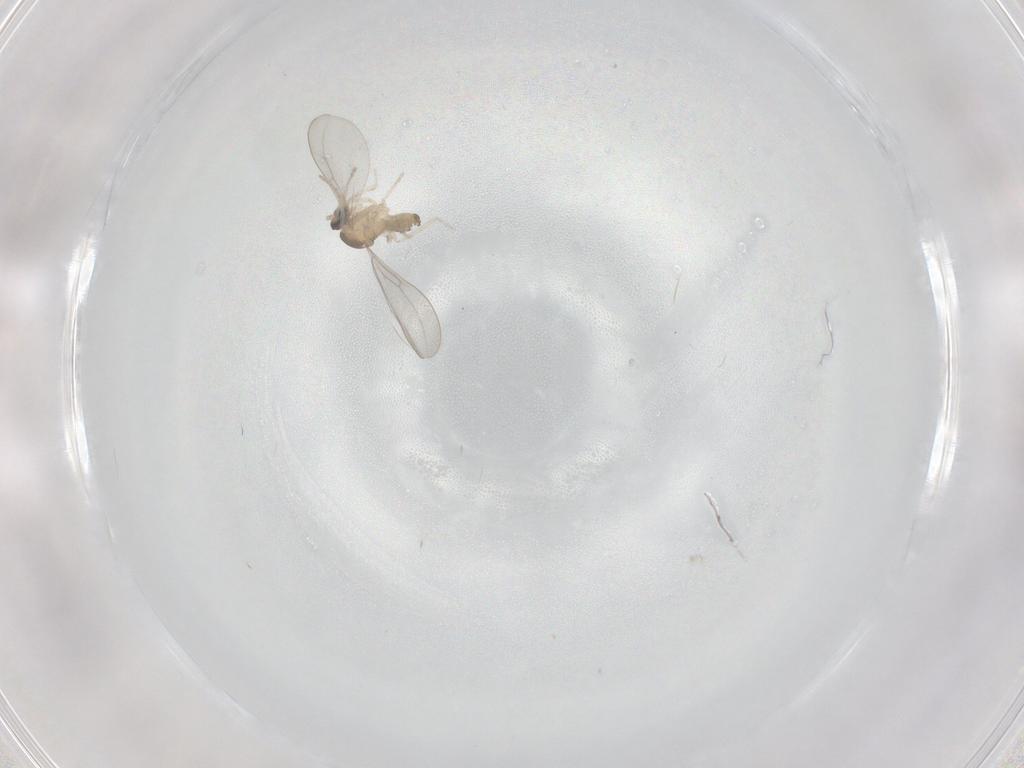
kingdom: Animalia
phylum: Arthropoda
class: Insecta
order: Diptera
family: Cecidomyiidae
